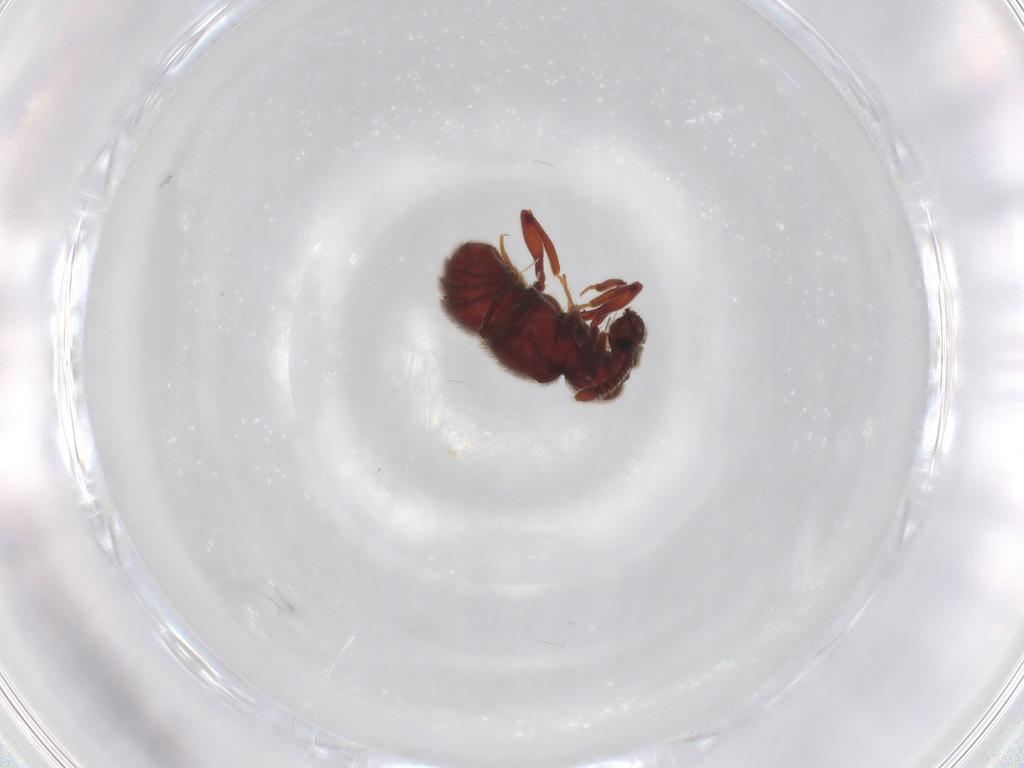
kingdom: Animalia
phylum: Arthropoda
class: Insecta
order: Coleoptera
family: Staphylinidae
